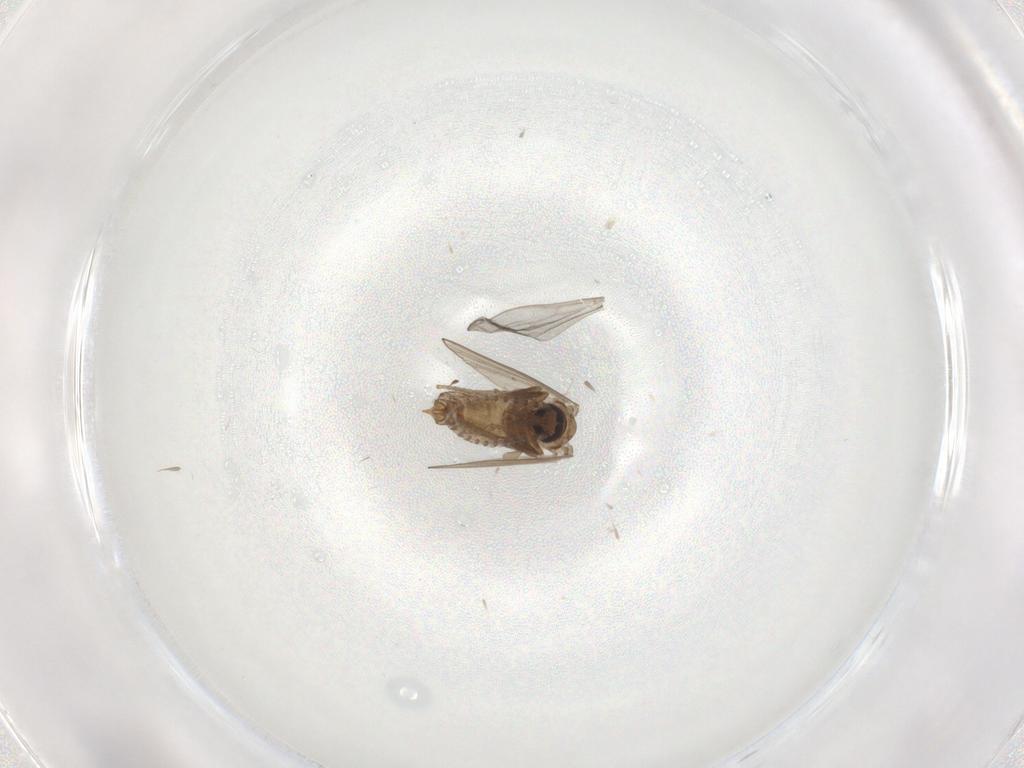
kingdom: Animalia
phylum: Arthropoda
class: Insecta
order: Diptera
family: Psychodidae
